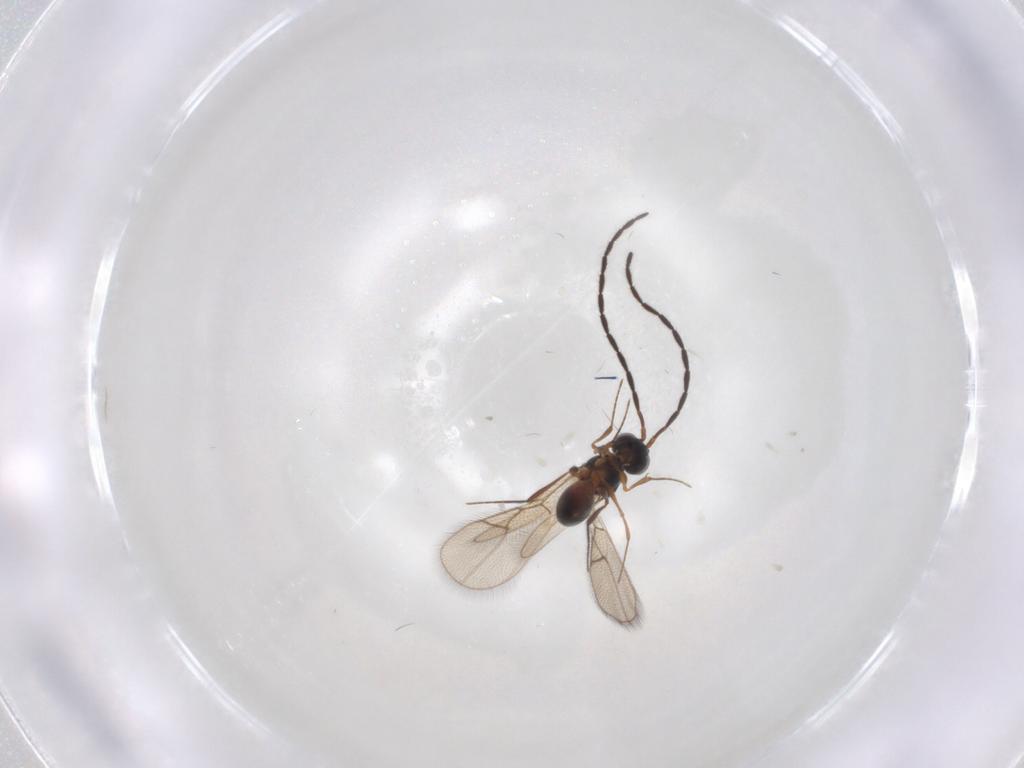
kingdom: Animalia
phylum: Arthropoda
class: Insecta
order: Hymenoptera
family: Figitidae
